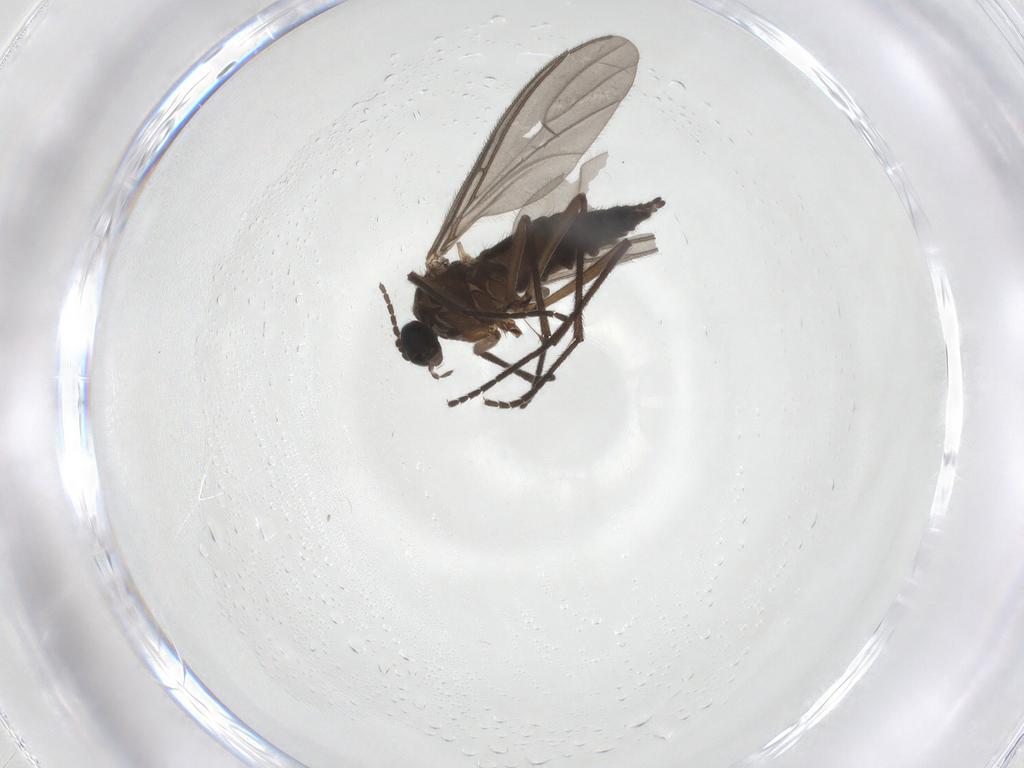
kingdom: Animalia
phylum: Arthropoda
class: Insecta
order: Diptera
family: Sciaridae
